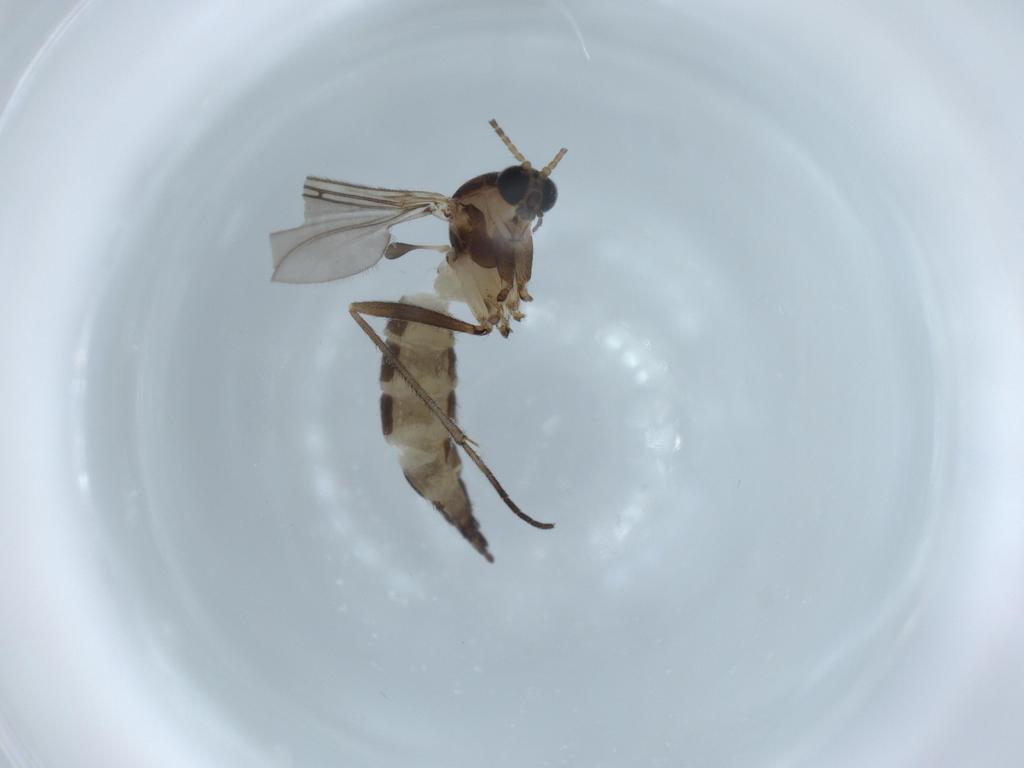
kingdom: Animalia
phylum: Arthropoda
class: Insecta
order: Diptera
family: Sciaridae
